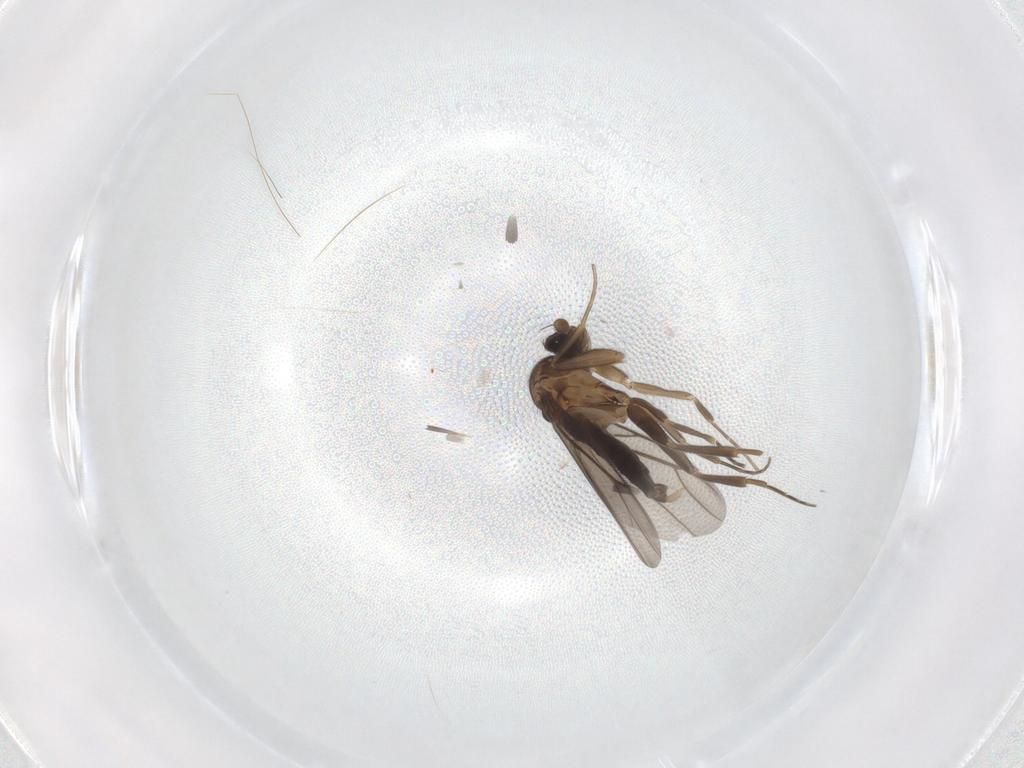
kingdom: Animalia
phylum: Arthropoda
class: Insecta
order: Diptera
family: Phoridae
